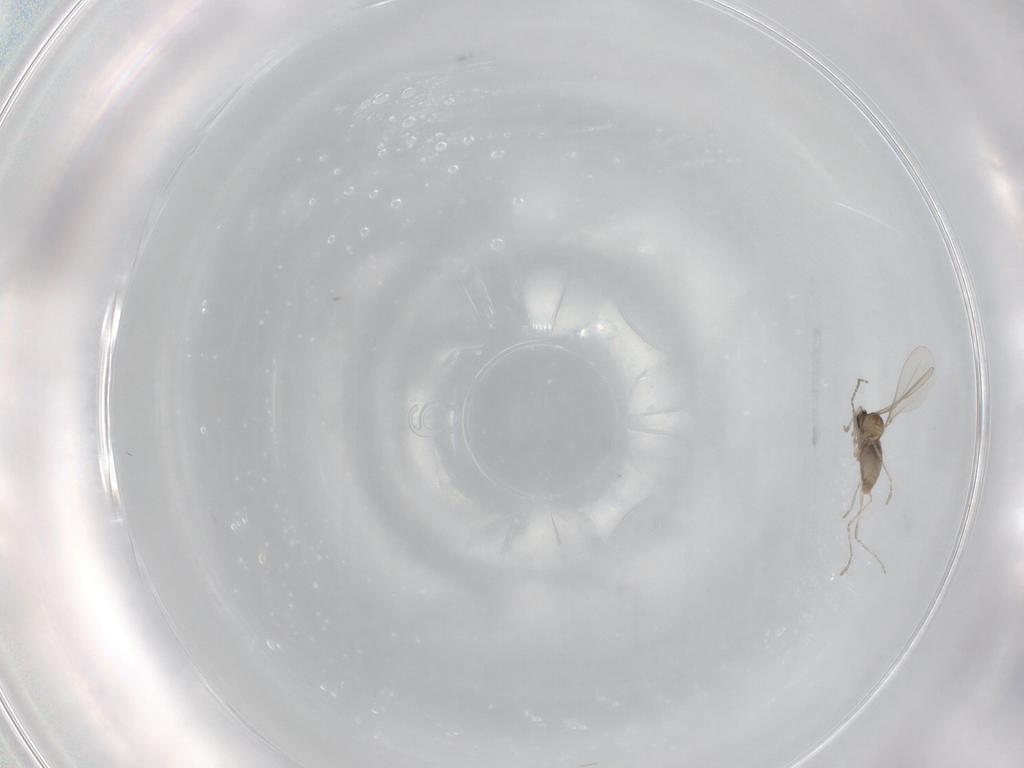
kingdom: Animalia
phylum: Arthropoda
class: Insecta
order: Diptera
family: Cecidomyiidae
